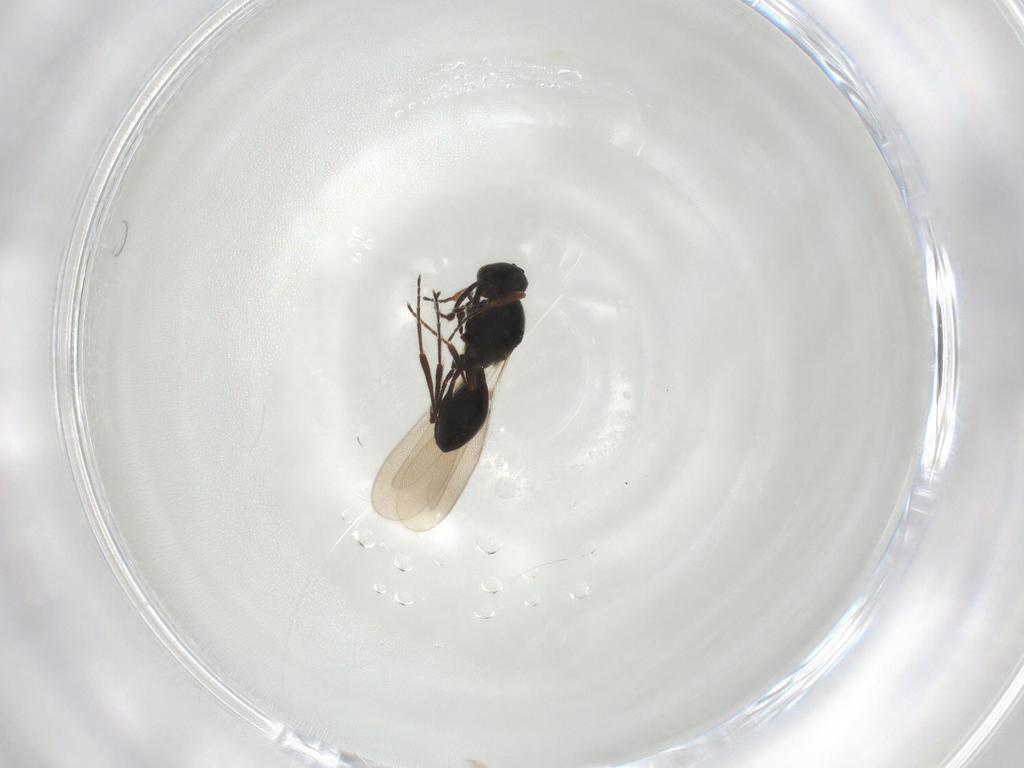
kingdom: Animalia
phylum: Arthropoda
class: Insecta
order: Hymenoptera
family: Platygastridae
